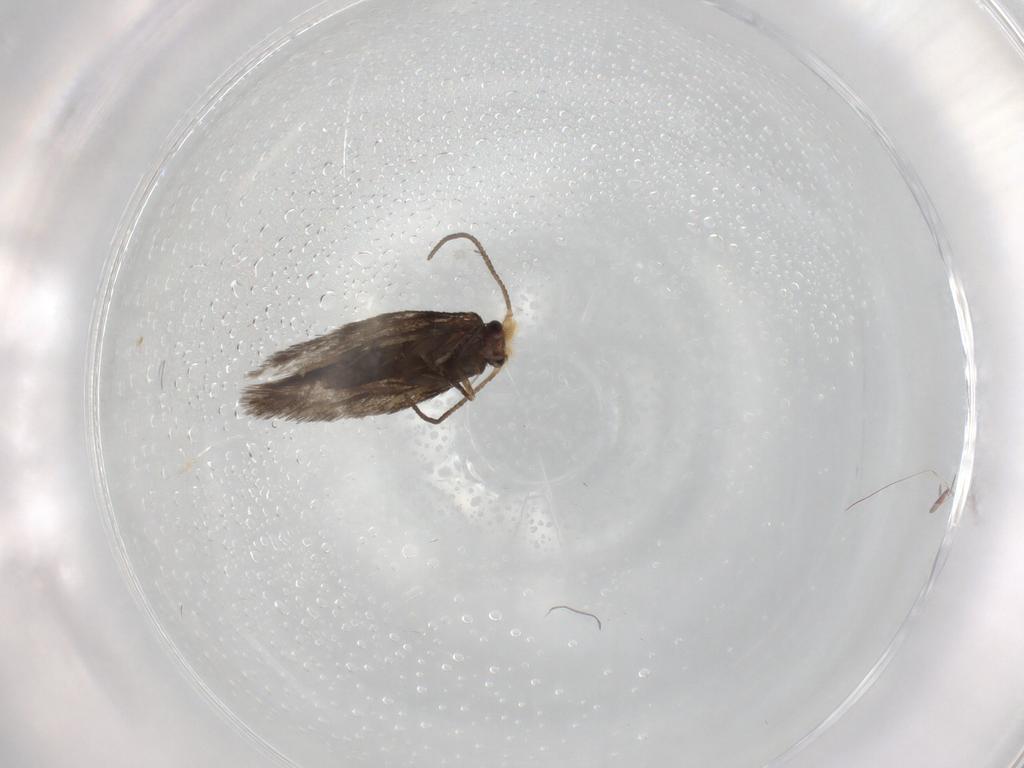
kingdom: Animalia
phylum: Arthropoda
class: Insecta
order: Lepidoptera
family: Nepticulidae
